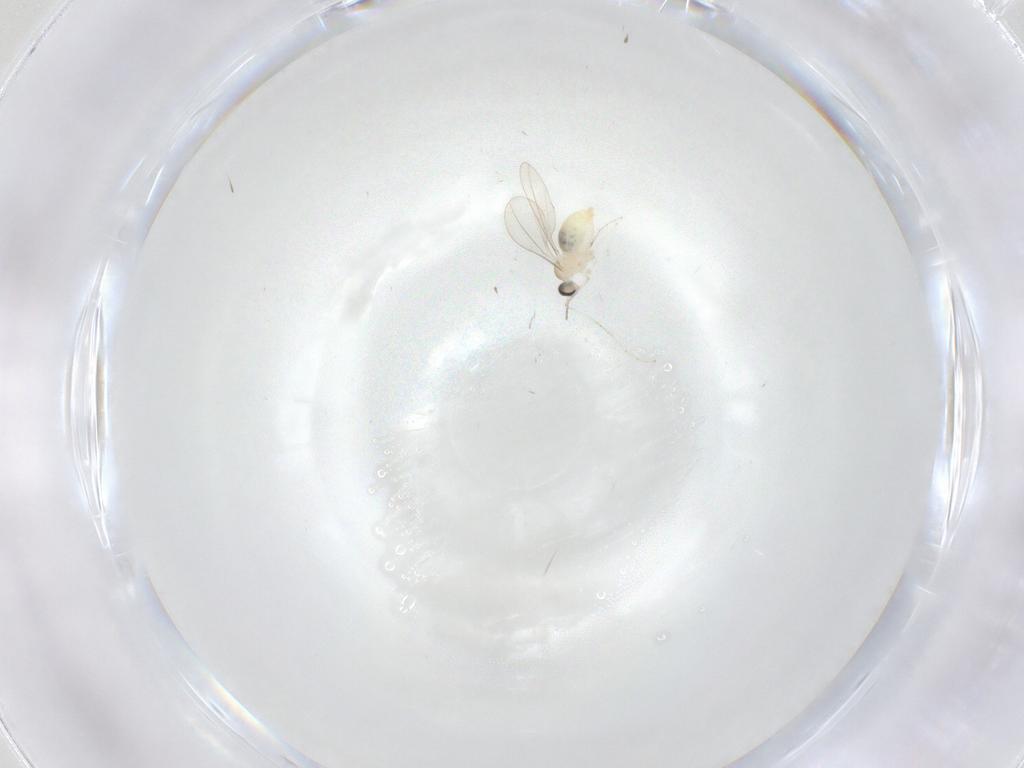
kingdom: Animalia
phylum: Arthropoda
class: Insecta
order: Diptera
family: Cecidomyiidae
